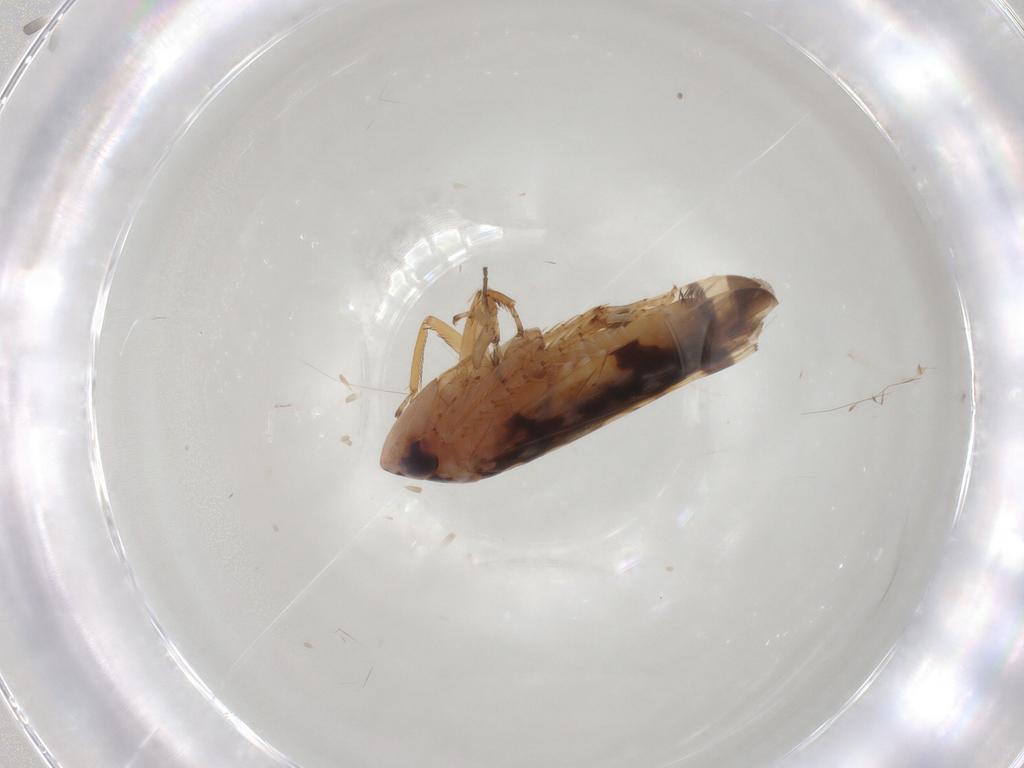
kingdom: Animalia
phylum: Arthropoda
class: Insecta
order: Hemiptera
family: Cicadellidae
